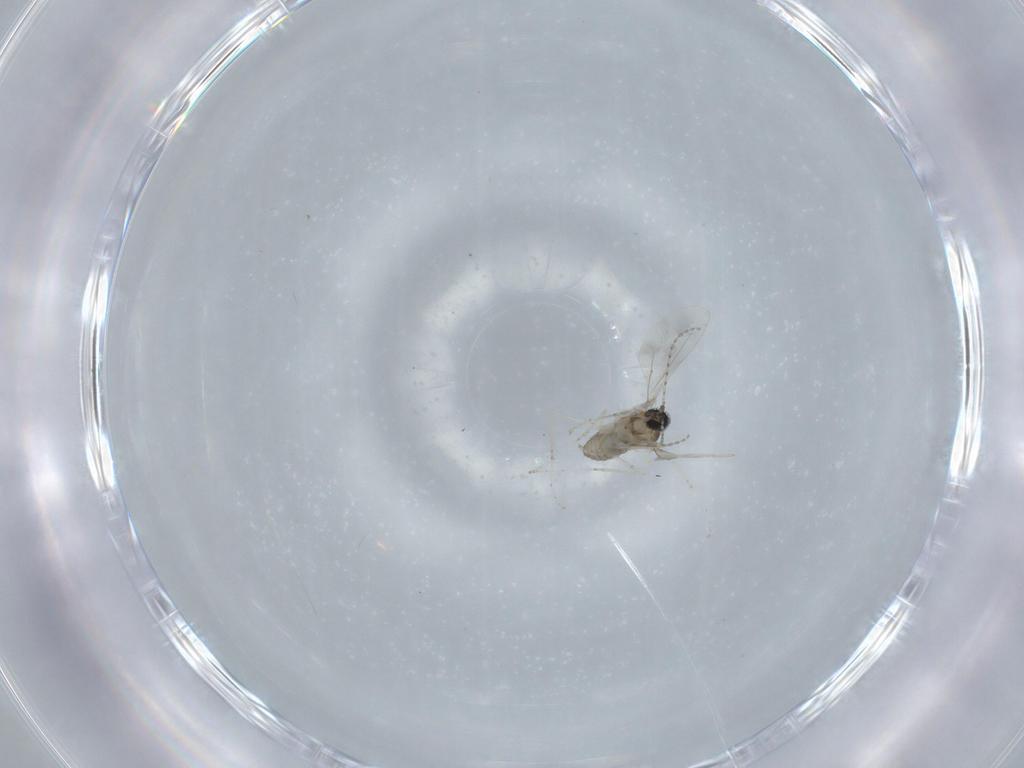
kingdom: Animalia
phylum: Arthropoda
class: Insecta
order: Diptera
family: Cecidomyiidae
